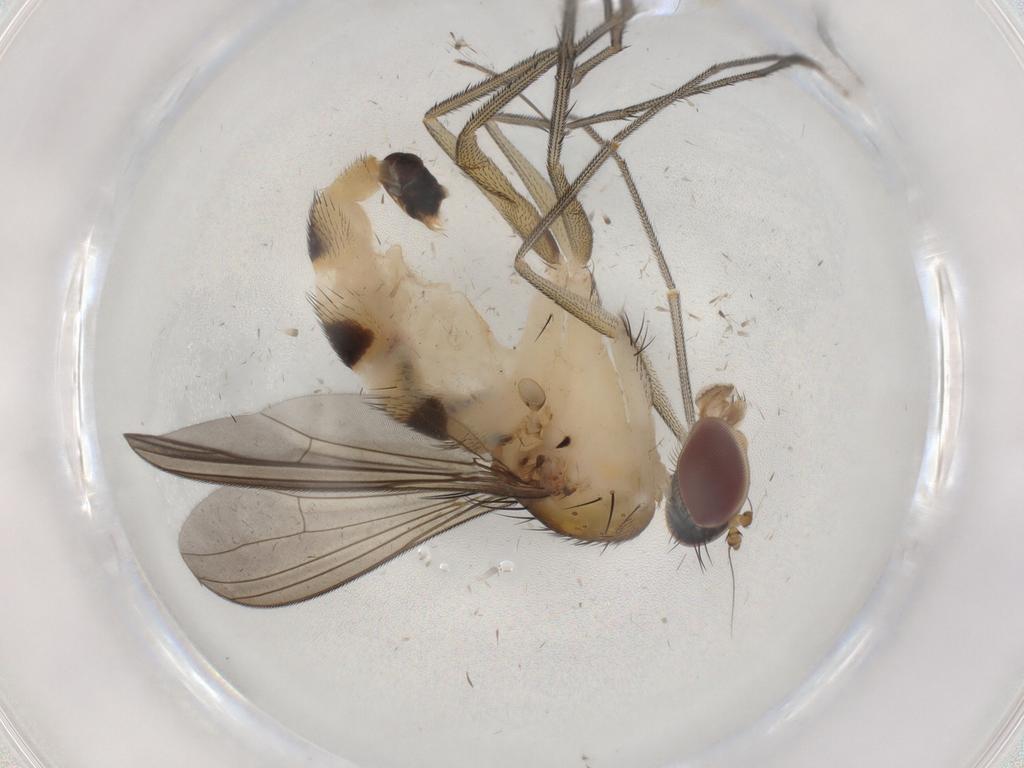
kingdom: Animalia
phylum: Arthropoda
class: Insecta
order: Diptera
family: Dolichopodidae
